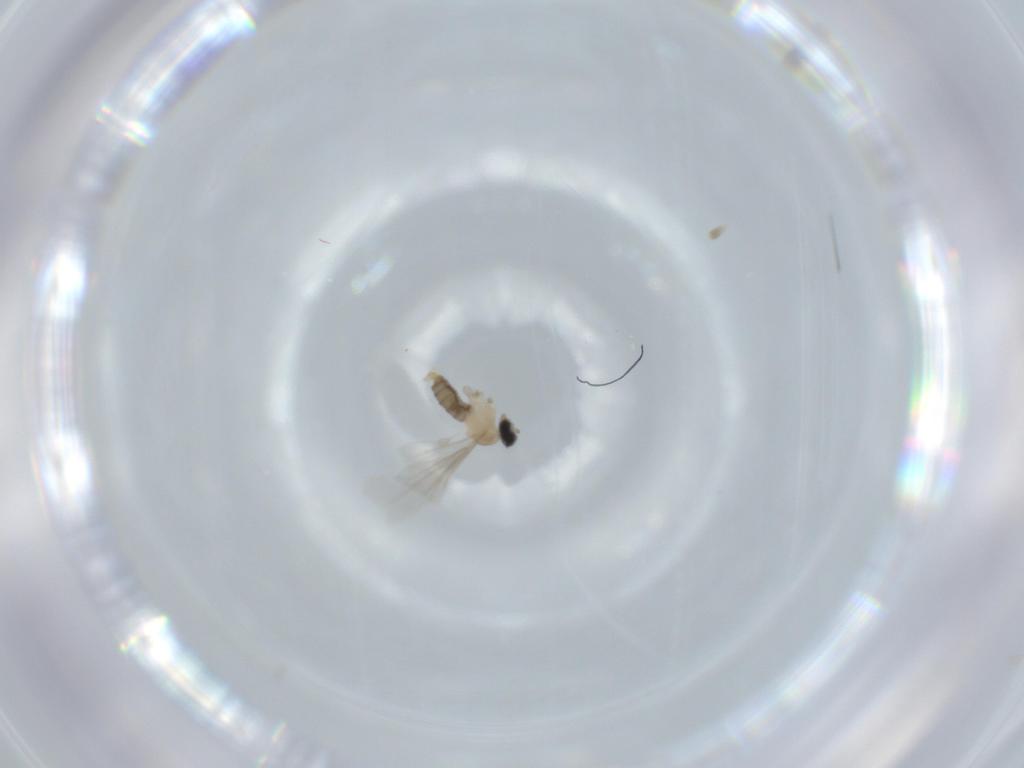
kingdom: Animalia
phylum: Arthropoda
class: Insecta
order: Diptera
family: Cecidomyiidae
